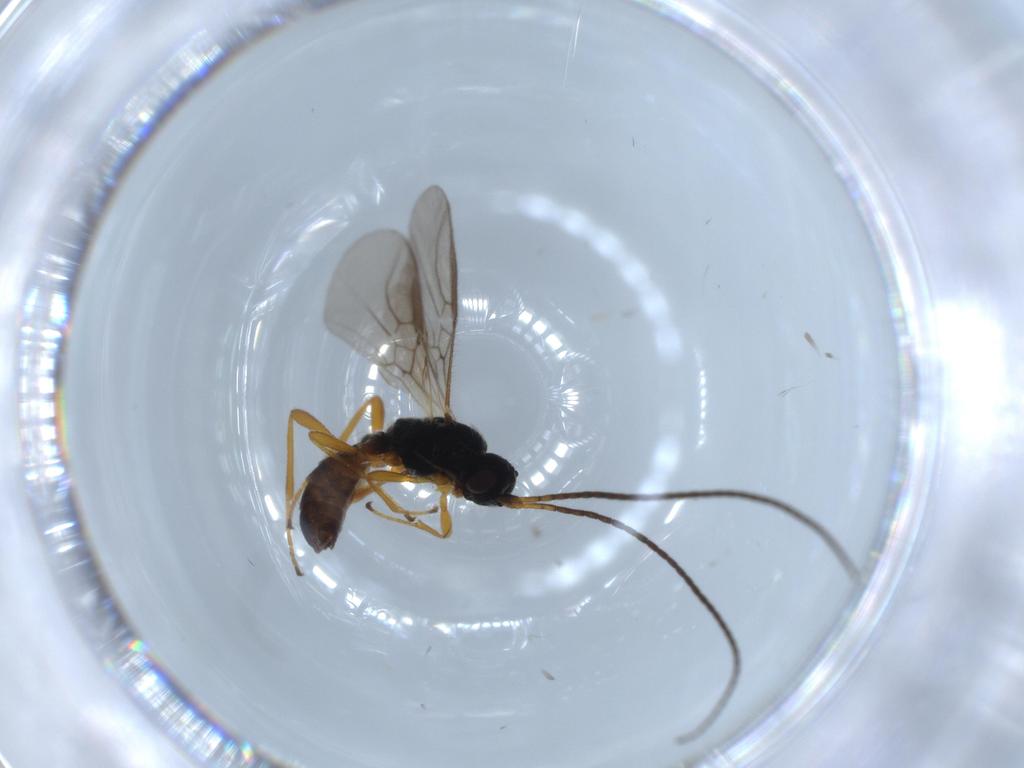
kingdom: Animalia
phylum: Arthropoda
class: Insecta
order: Hymenoptera
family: Braconidae
